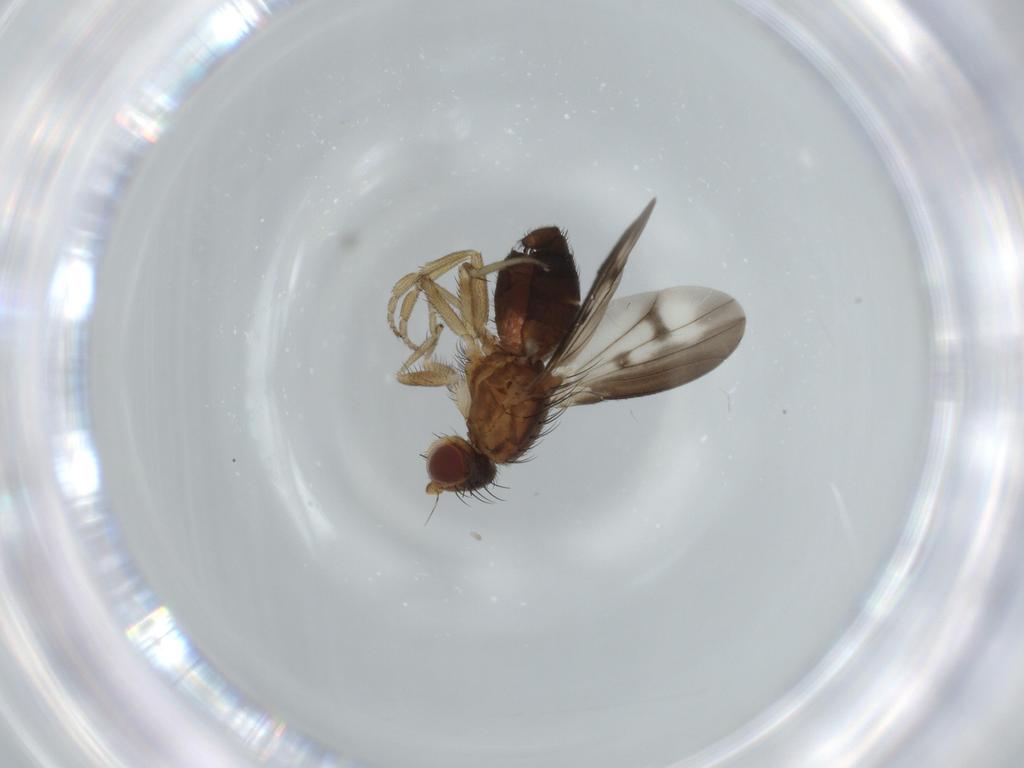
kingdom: Animalia
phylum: Arthropoda
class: Insecta
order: Diptera
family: Heleomyzidae
